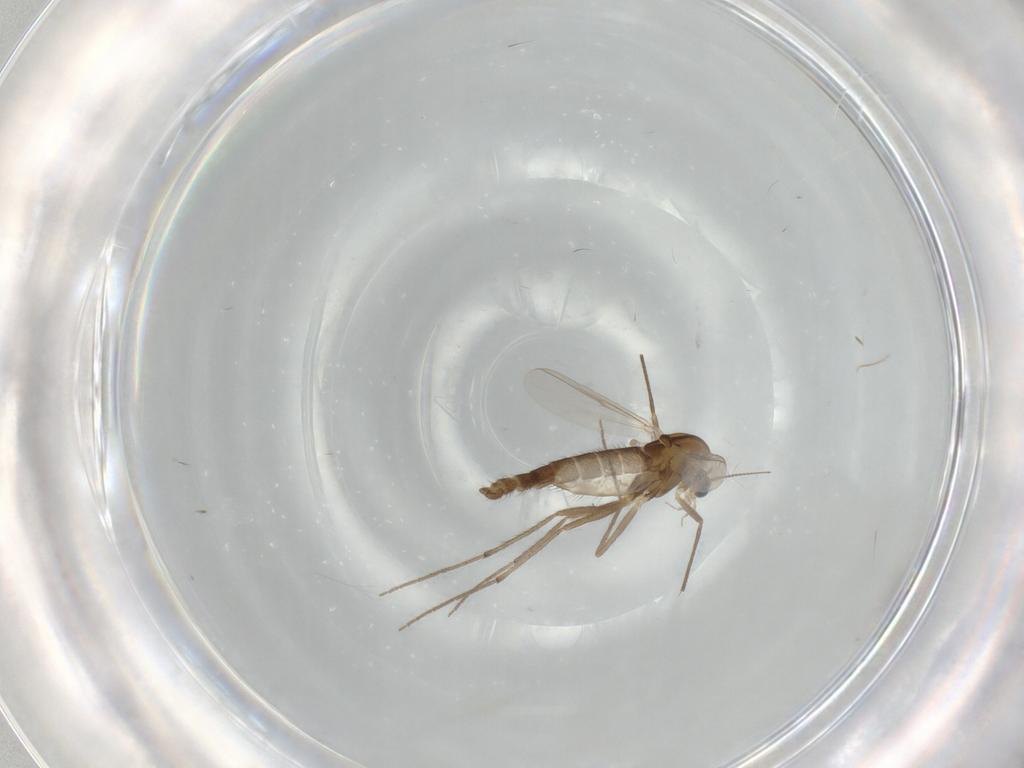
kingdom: Animalia
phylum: Arthropoda
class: Insecta
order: Diptera
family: Chironomidae
